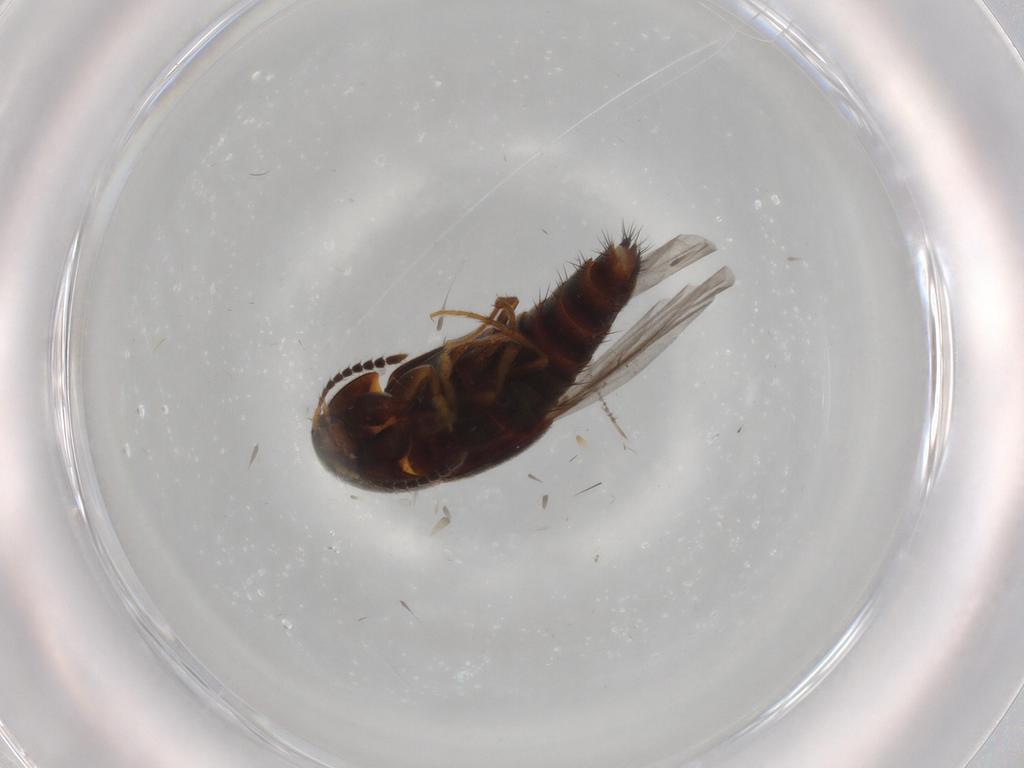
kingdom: Animalia
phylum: Arthropoda
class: Insecta
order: Coleoptera
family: Staphylinidae
